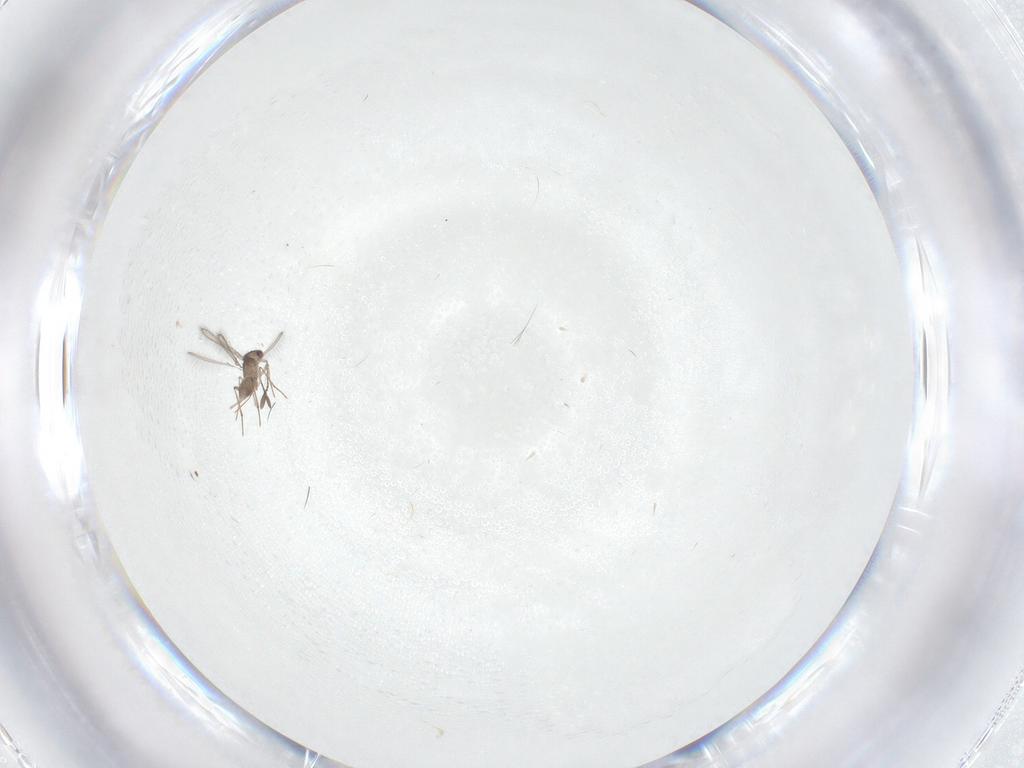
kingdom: Animalia
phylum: Arthropoda
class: Insecta
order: Hymenoptera
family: Mymaridae
